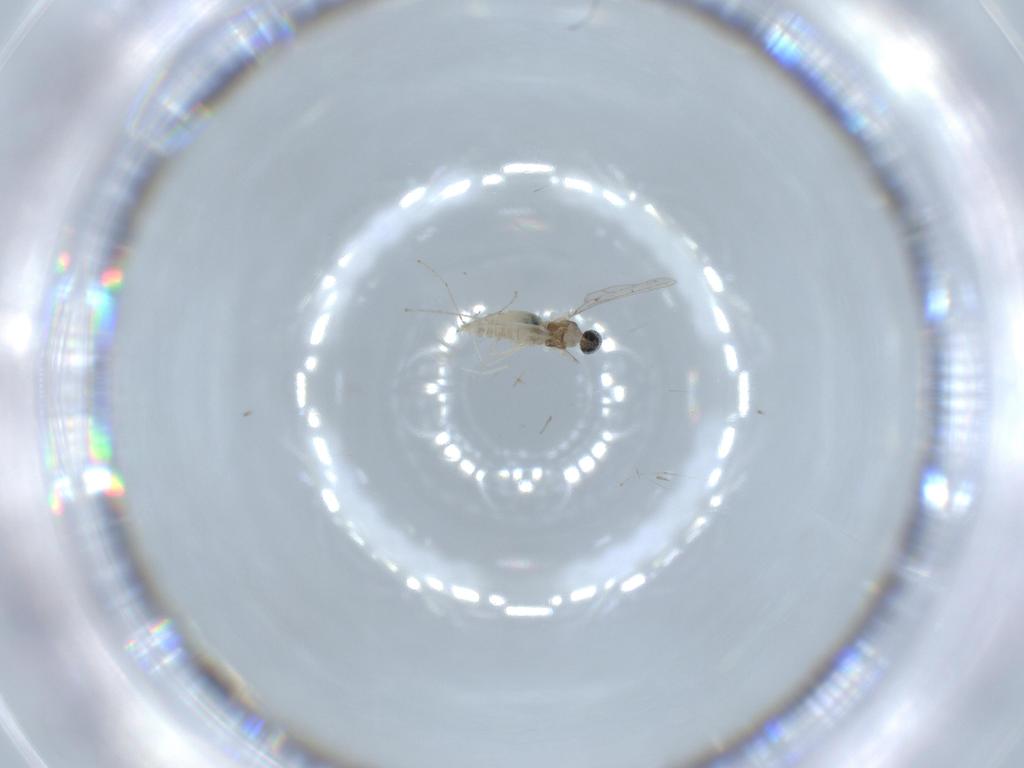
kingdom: Animalia
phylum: Arthropoda
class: Insecta
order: Diptera
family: Cecidomyiidae
